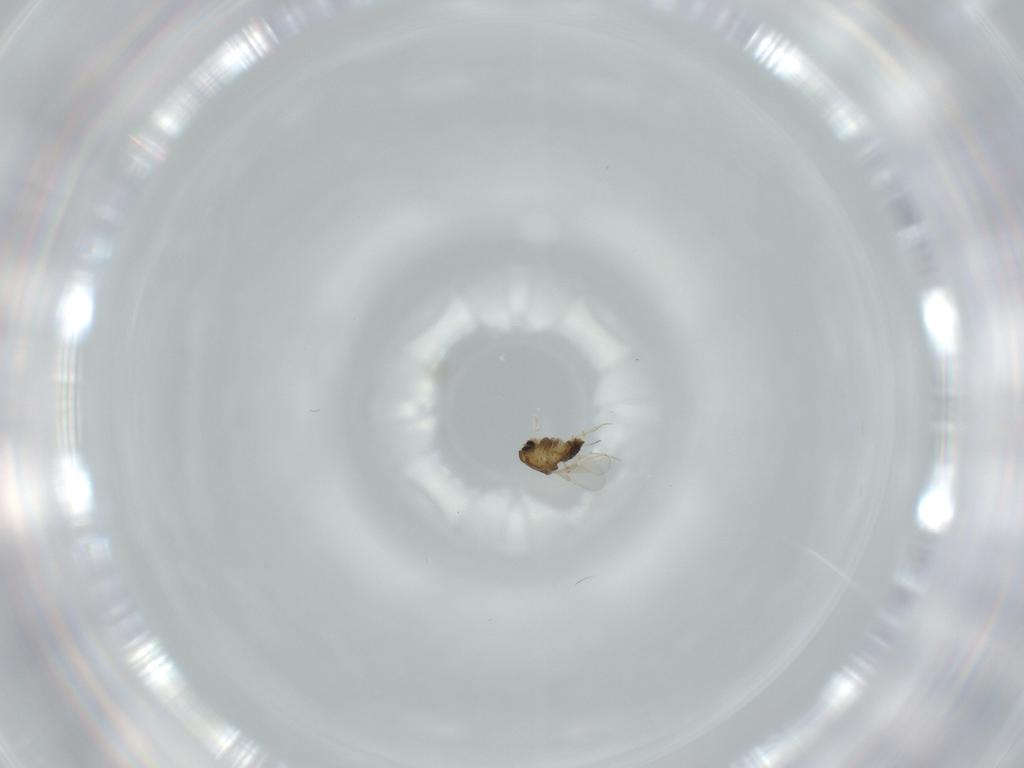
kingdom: Animalia
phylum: Arthropoda
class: Insecta
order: Diptera
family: Chironomidae
